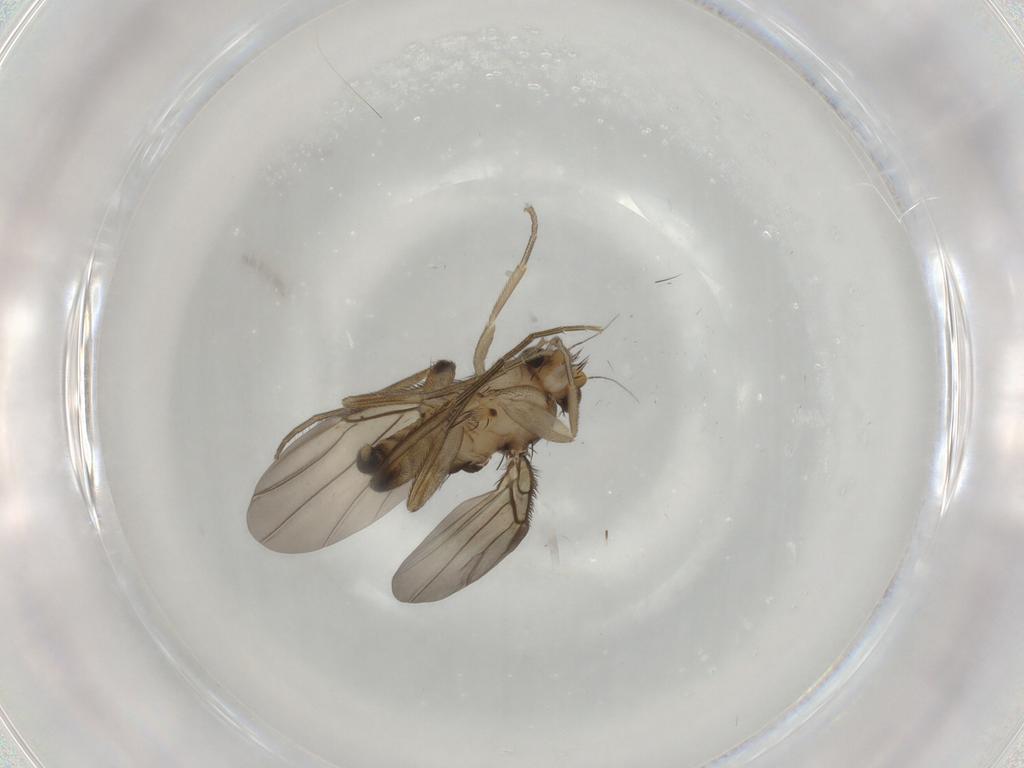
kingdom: Animalia
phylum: Arthropoda
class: Insecta
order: Diptera
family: Phoridae
